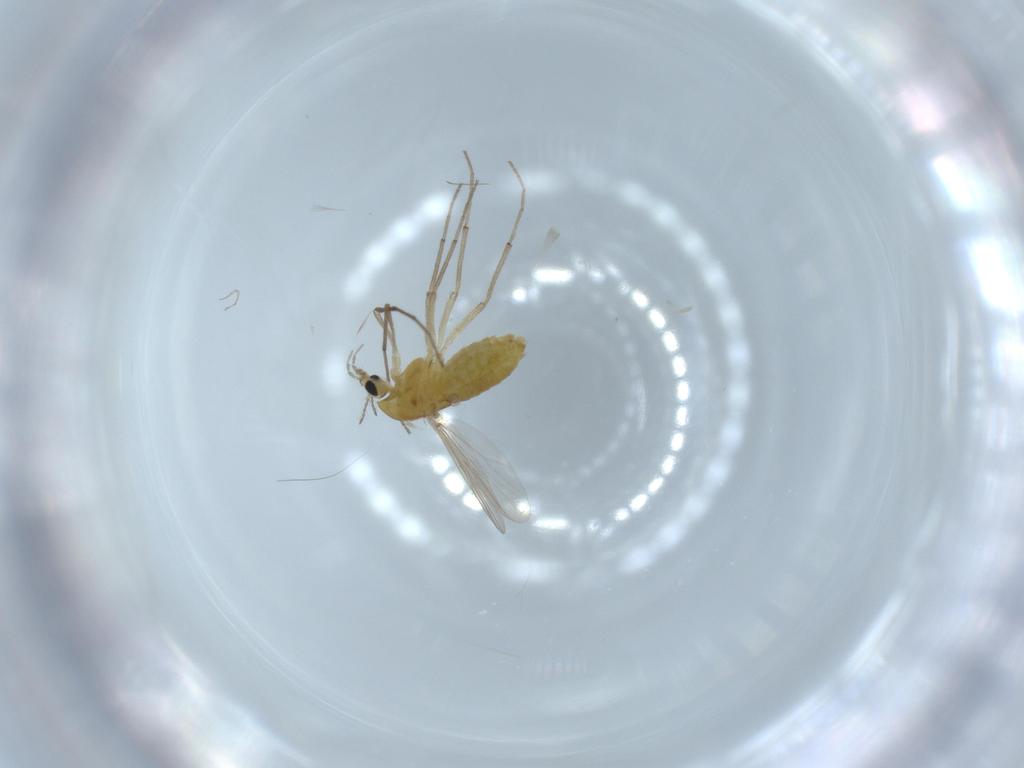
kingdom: Animalia
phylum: Arthropoda
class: Insecta
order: Diptera
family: Chironomidae
